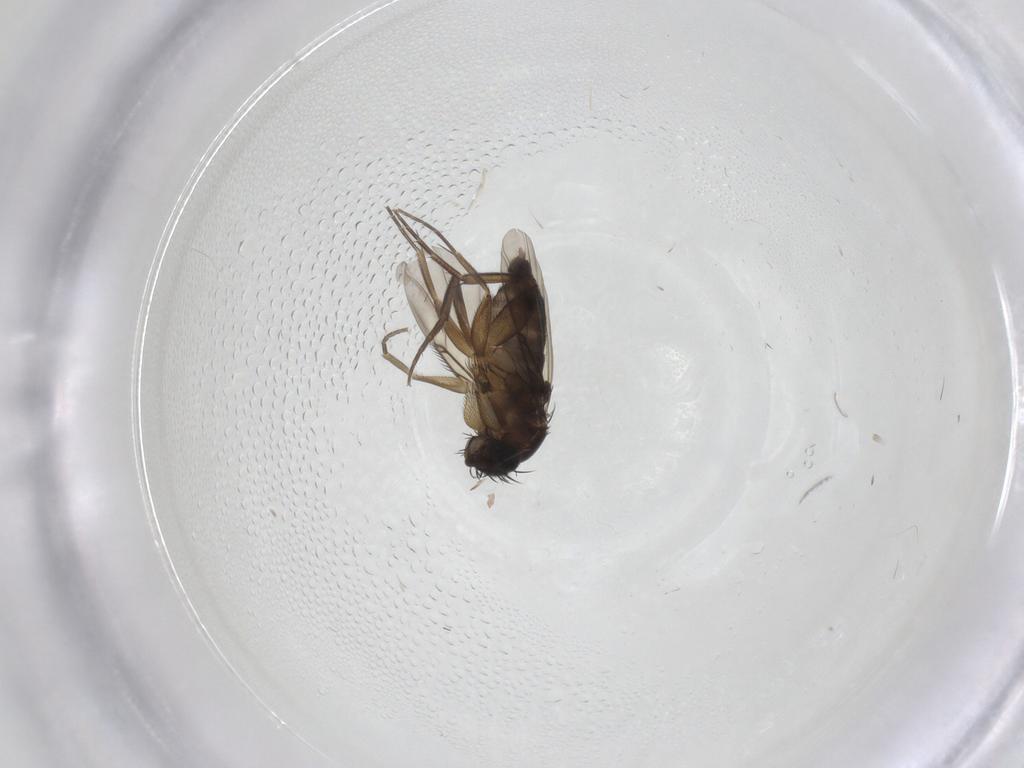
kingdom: Animalia
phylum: Arthropoda
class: Insecta
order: Diptera
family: Phoridae
